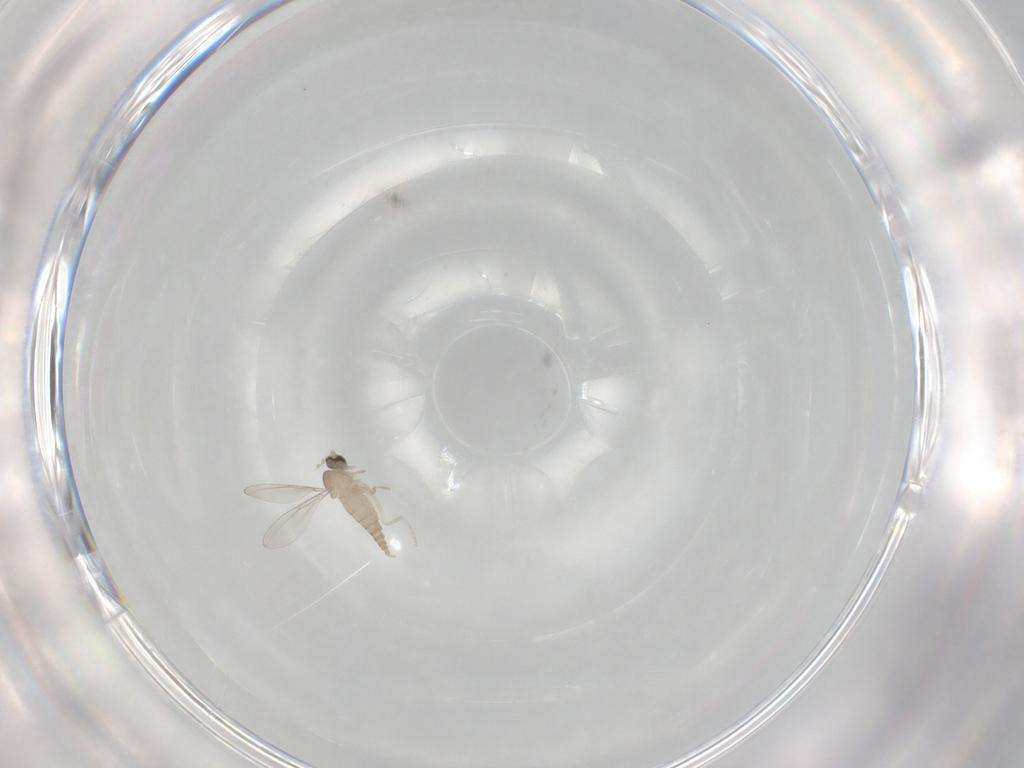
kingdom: Animalia
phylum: Arthropoda
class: Insecta
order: Diptera
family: Cecidomyiidae
